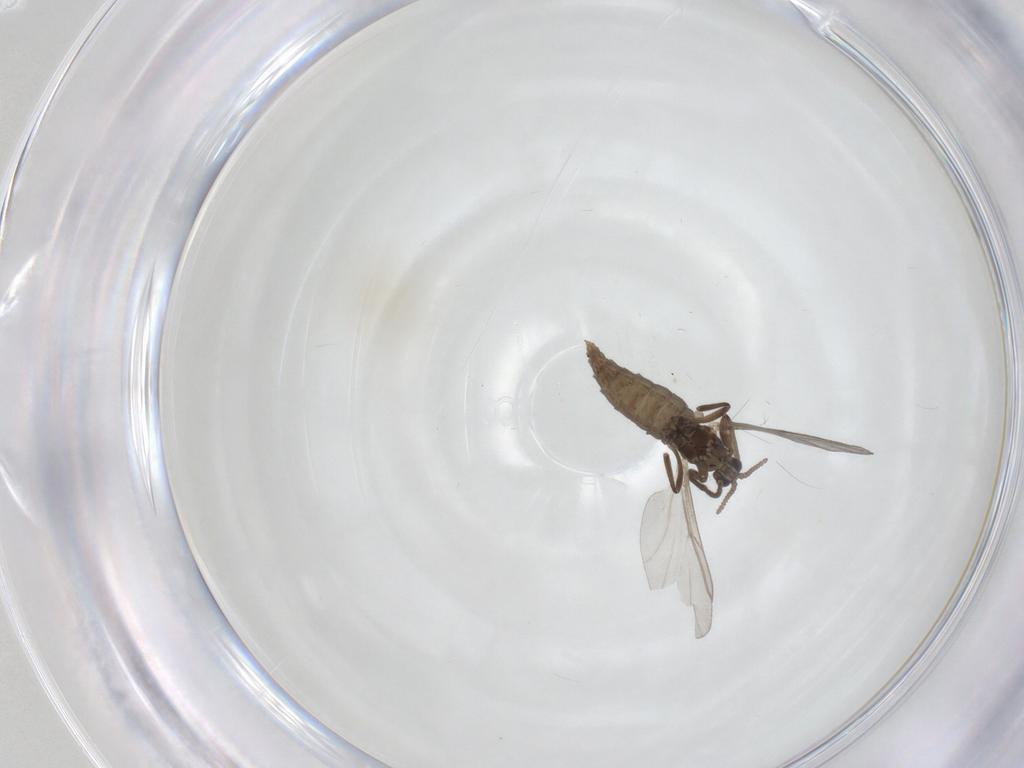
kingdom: Animalia
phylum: Arthropoda
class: Insecta
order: Diptera
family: Cecidomyiidae
